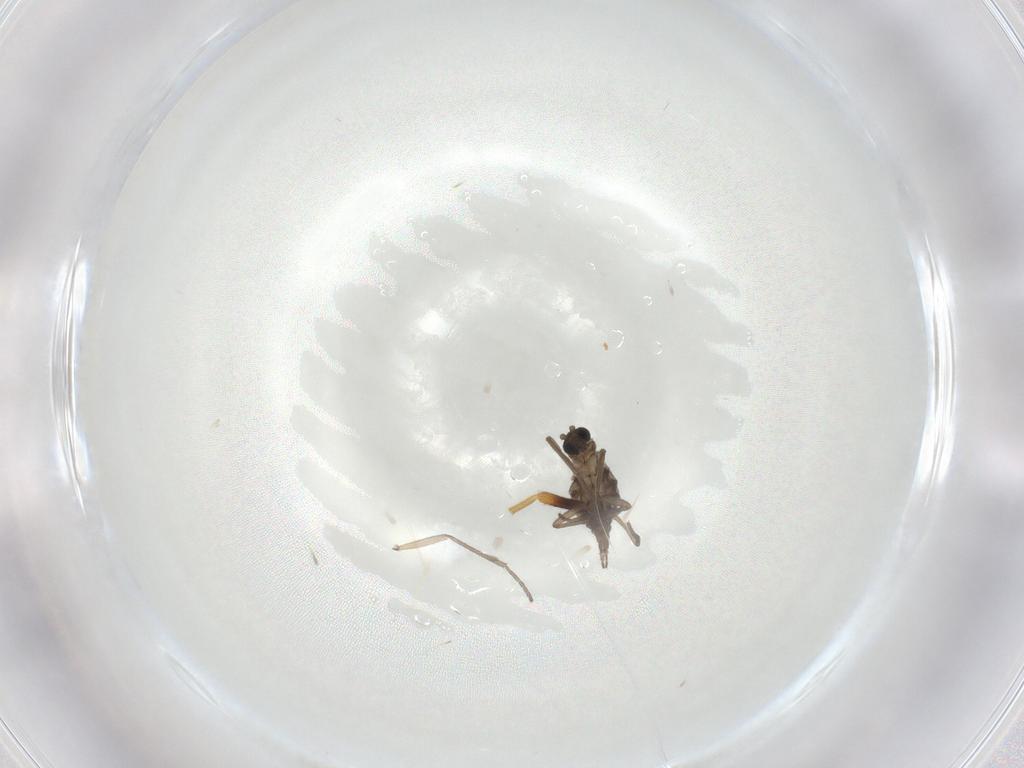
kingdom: Animalia
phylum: Arthropoda
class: Insecta
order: Diptera
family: Chloropidae
